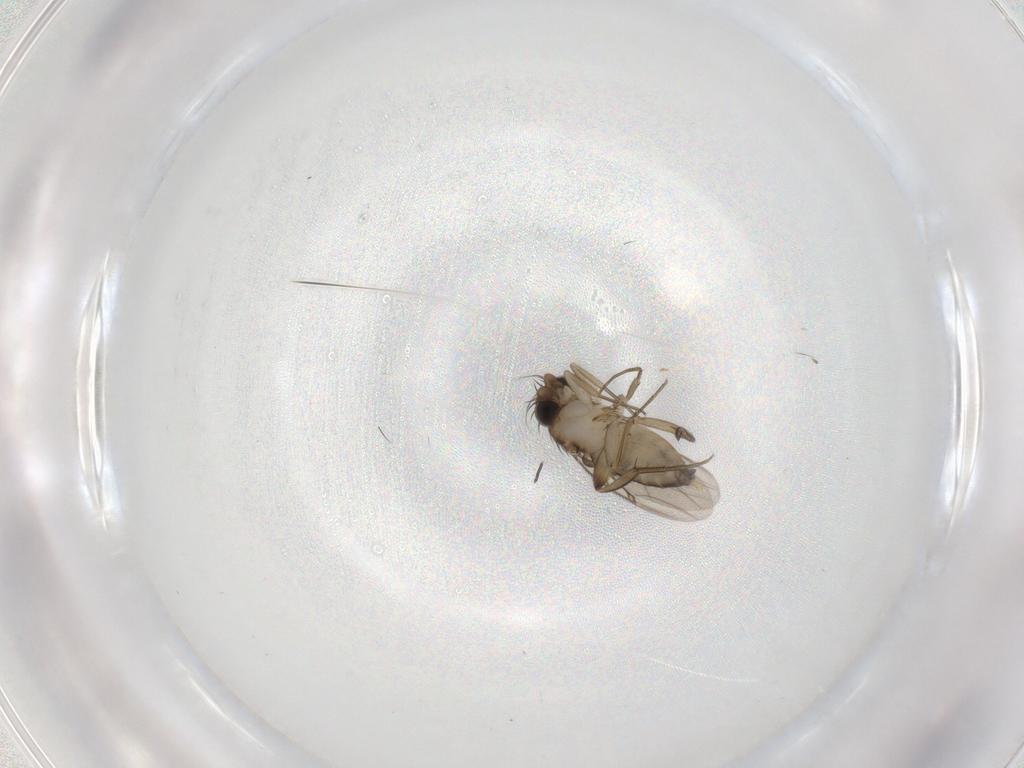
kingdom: Animalia
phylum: Arthropoda
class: Insecta
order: Diptera
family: Phoridae
